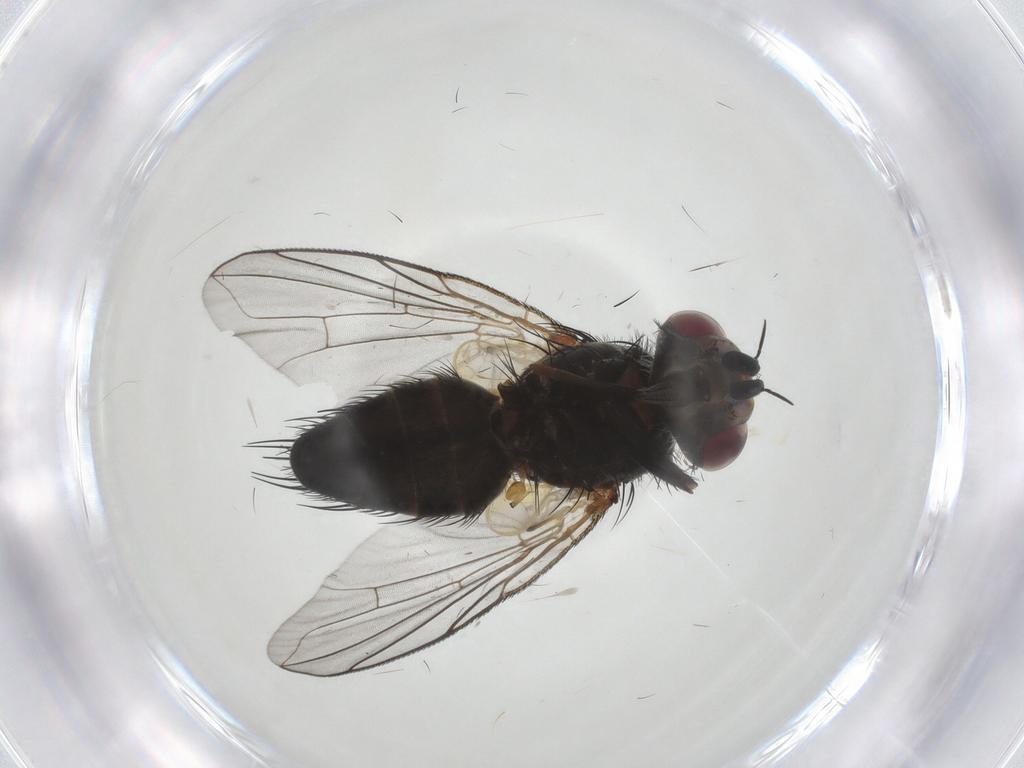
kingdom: Animalia
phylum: Arthropoda
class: Insecta
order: Diptera
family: Tachinidae
